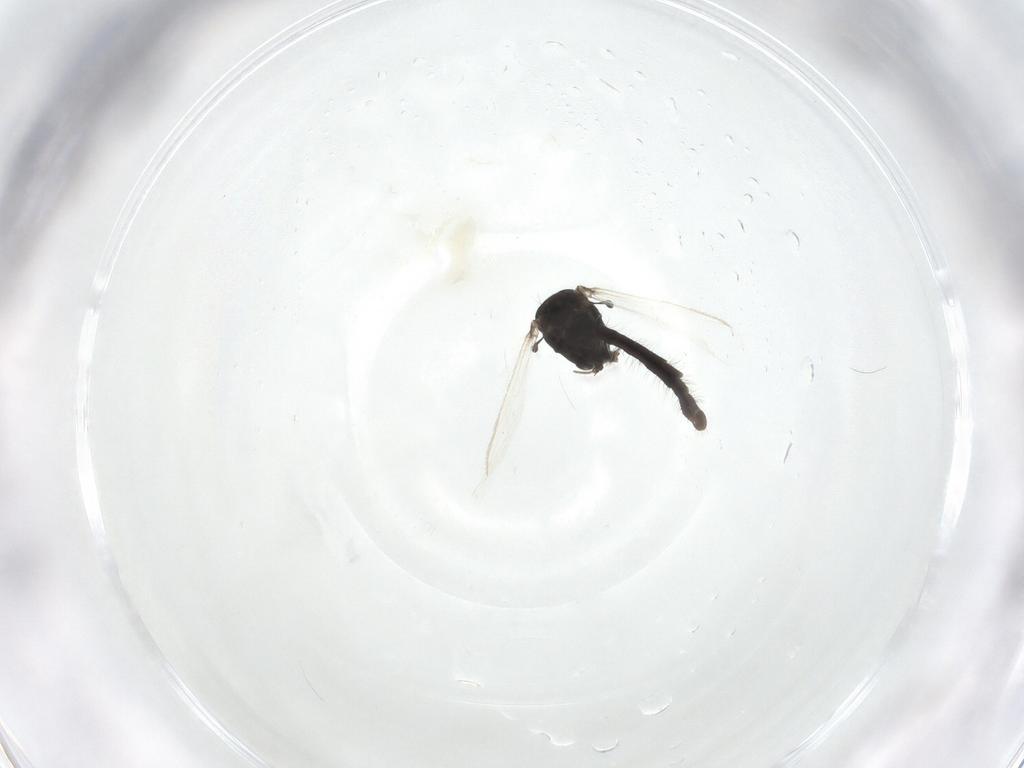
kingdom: Animalia
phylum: Arthropoda
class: Insecta
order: Diptera
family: Chironomidae
